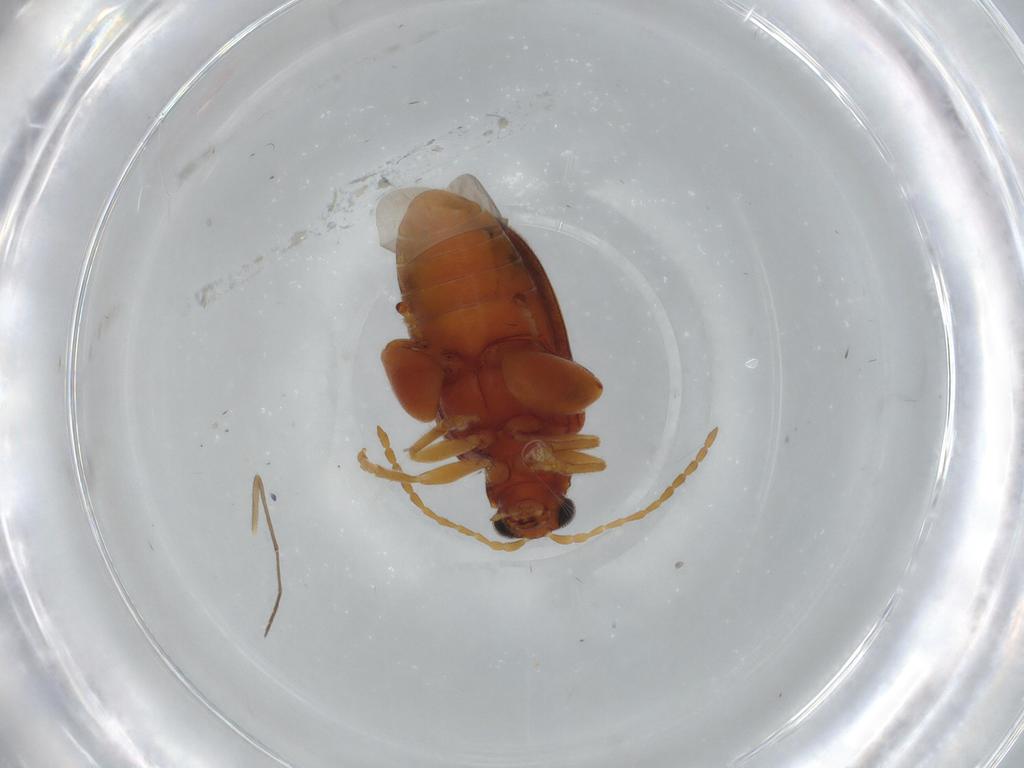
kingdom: Animalia
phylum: Arthropoda
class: Insecta
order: Coleoptera
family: Chrysomelidae
